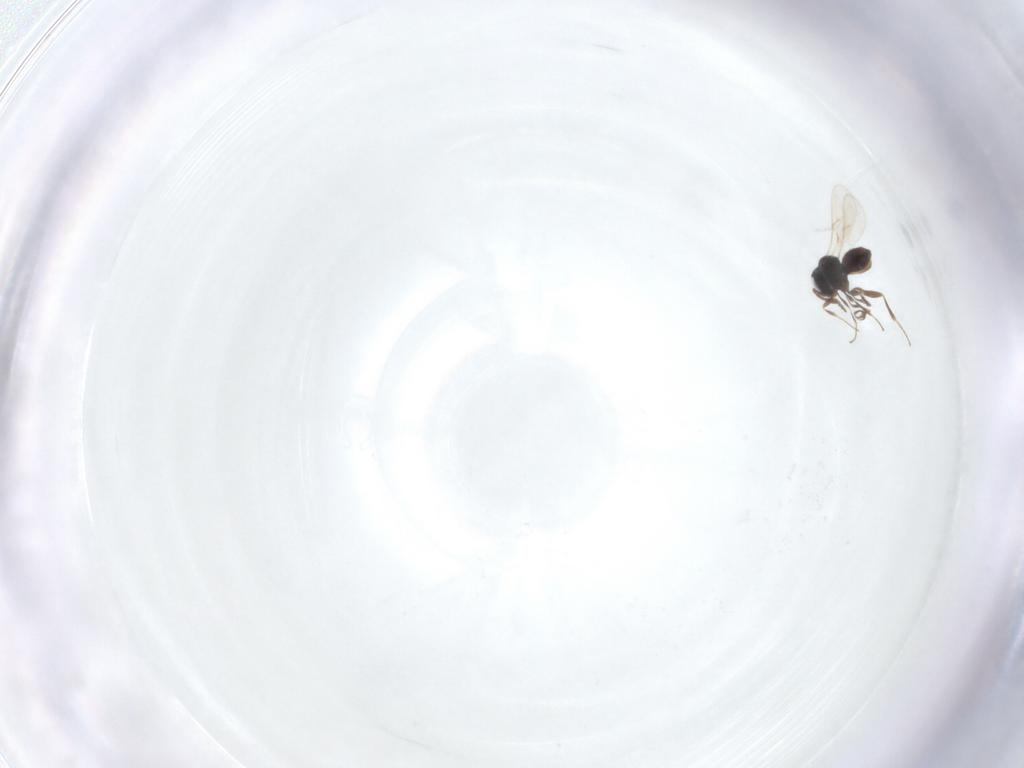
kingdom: Animalia
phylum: Arthropoda
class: Insecta
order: Hymenoptera
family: Scelionidae
